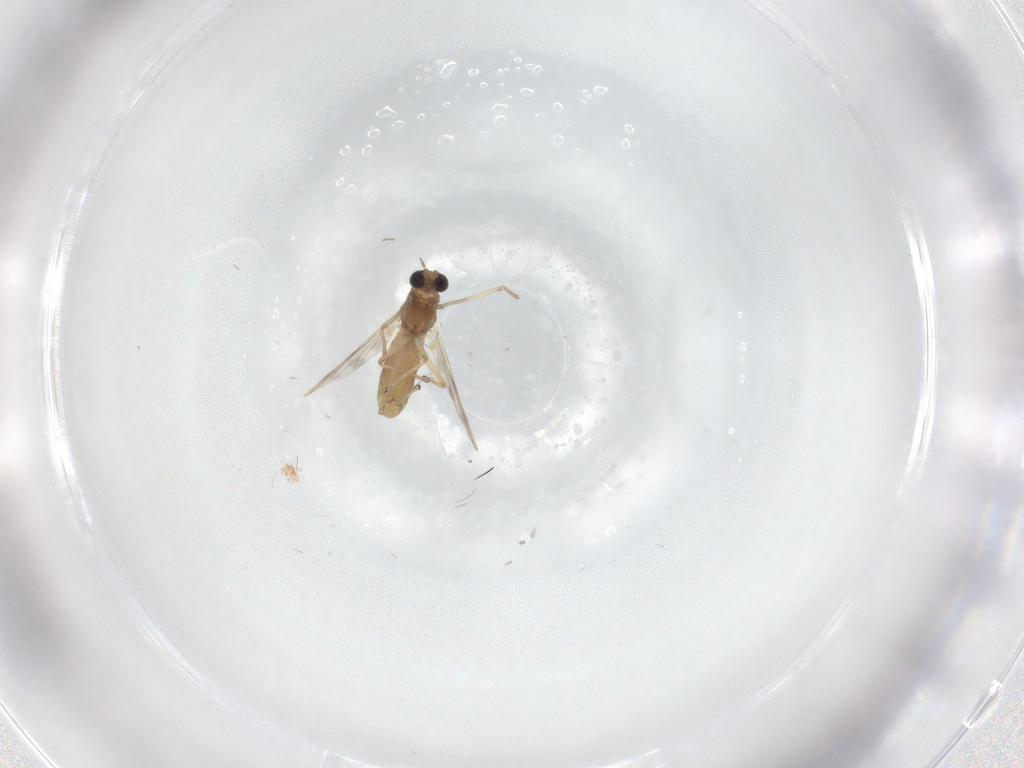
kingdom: Animalia
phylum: Arthropoda
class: Insecta
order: Diptera
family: Chironomidae
